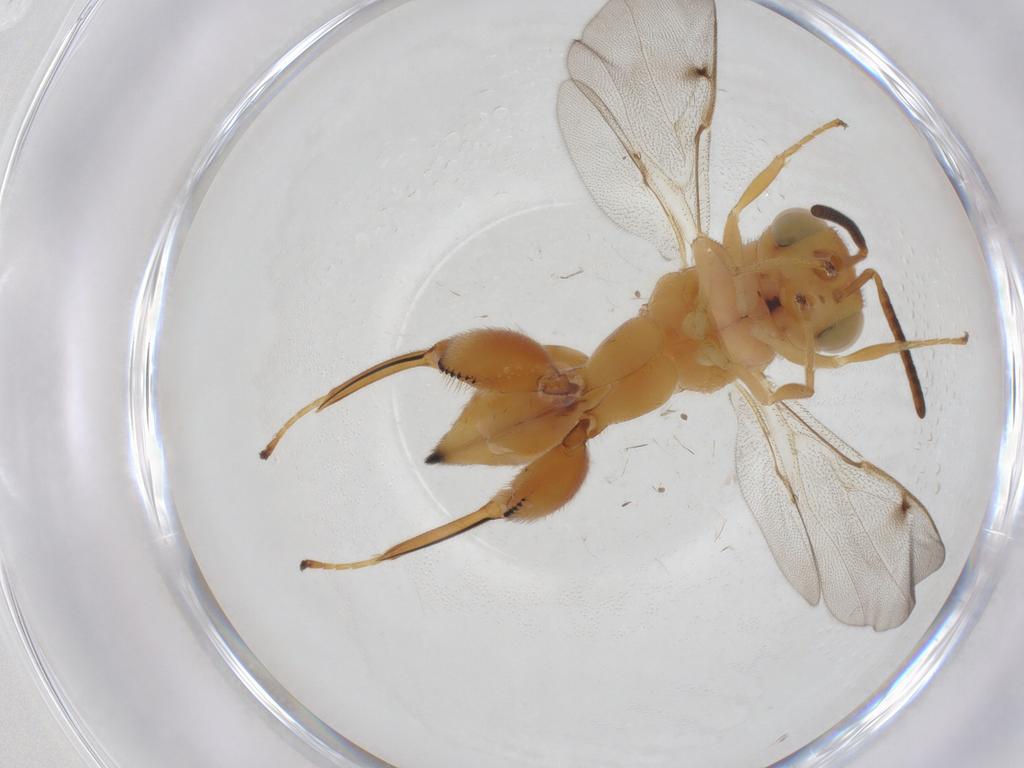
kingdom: Animalia
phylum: Arthropoda
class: Insecta
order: Hymenoptera
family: Chalcididae
